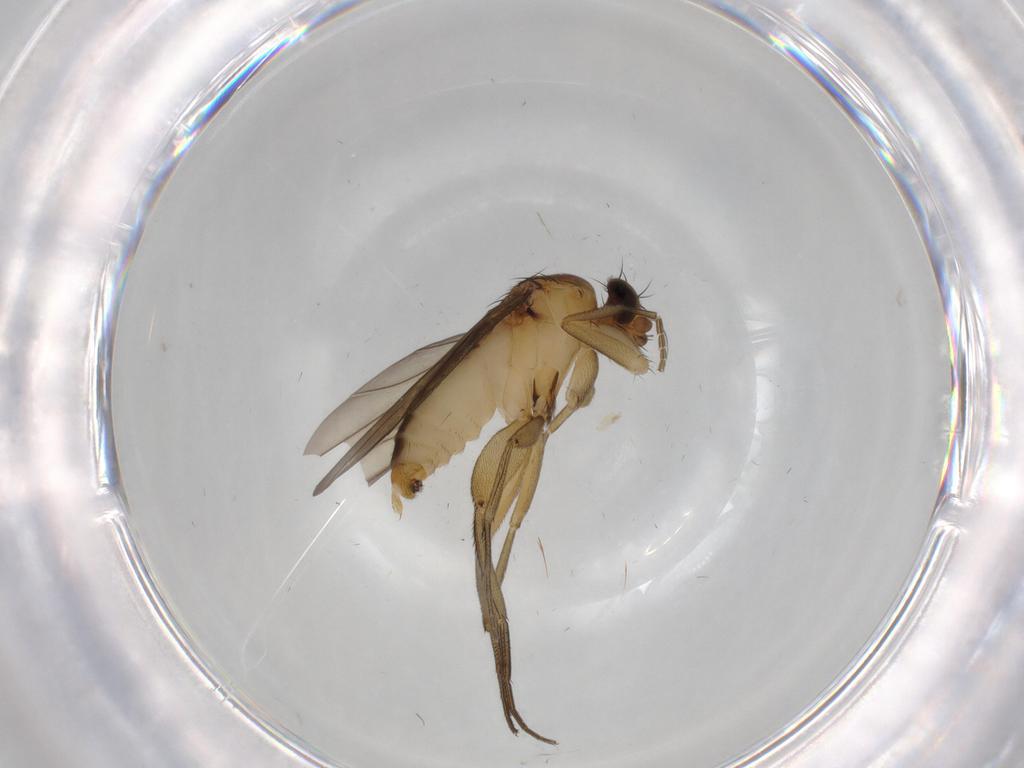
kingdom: Animalia
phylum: Arthropoda
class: Insecta
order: Diptera
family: Phoridae
